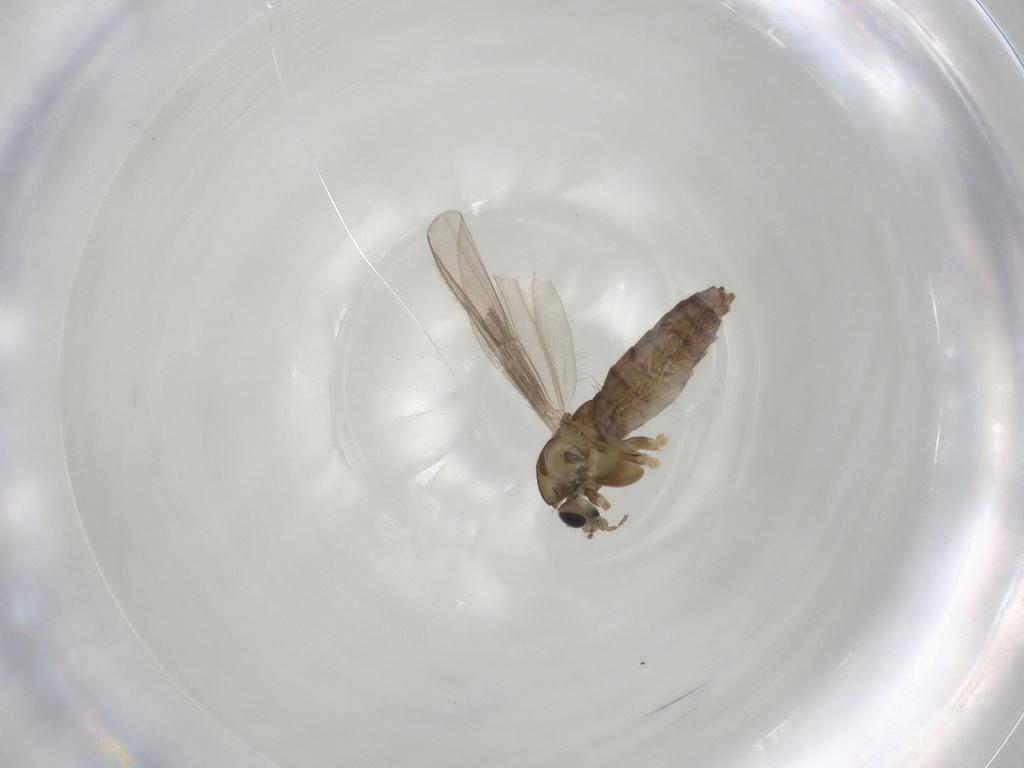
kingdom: Animalia
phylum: Arthropoda
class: Insecta
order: Diptera
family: Chironomidae
